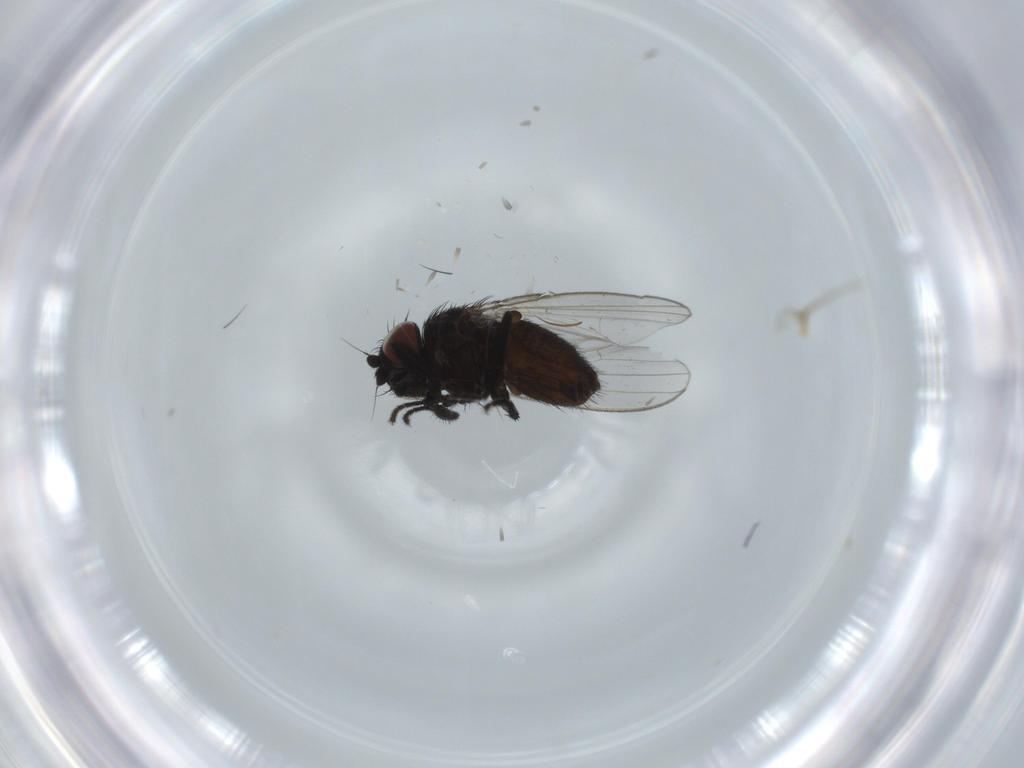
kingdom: Animalia
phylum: Arthropoda
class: Insecta
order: Diptera
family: Milichiidae
